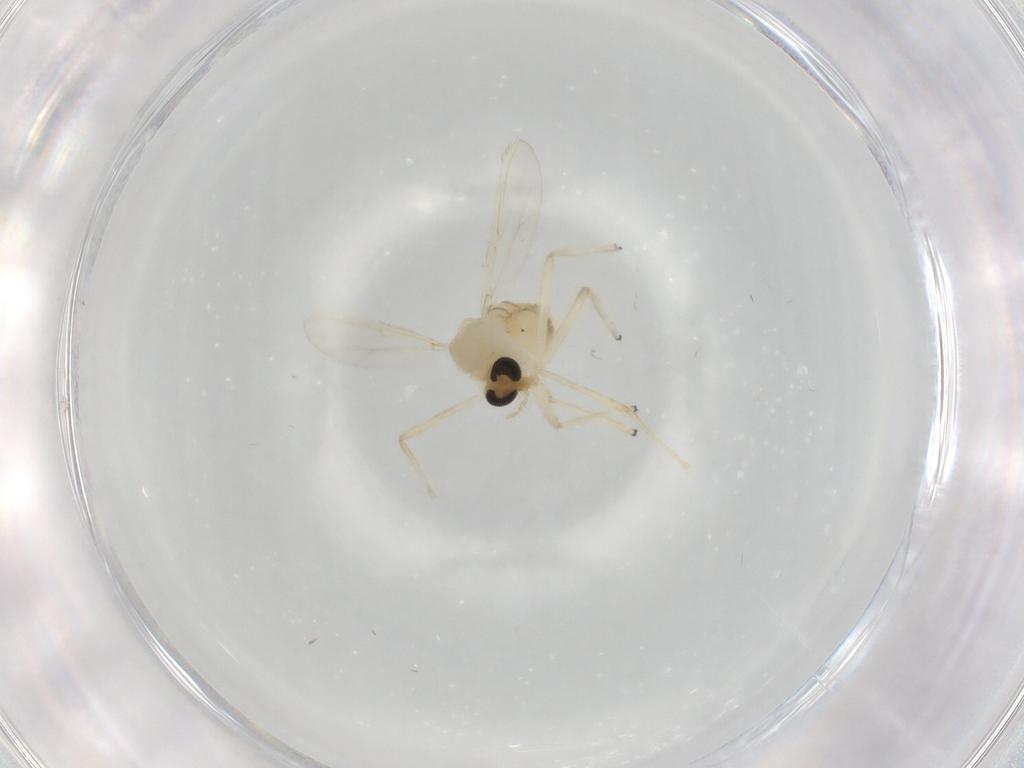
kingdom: Animalia
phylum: Arthropoda
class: Insecta
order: Diptera
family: Chironomidae
